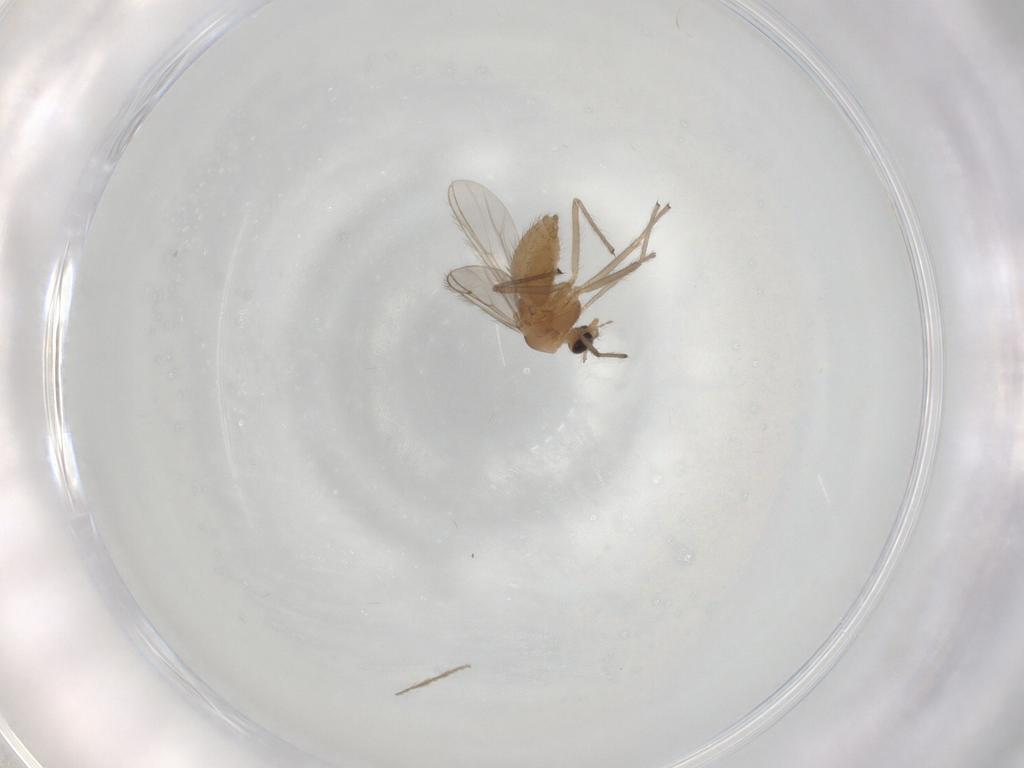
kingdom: Animalia
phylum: Arthropoda
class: Insecta
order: Diptera
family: Chironomidae
